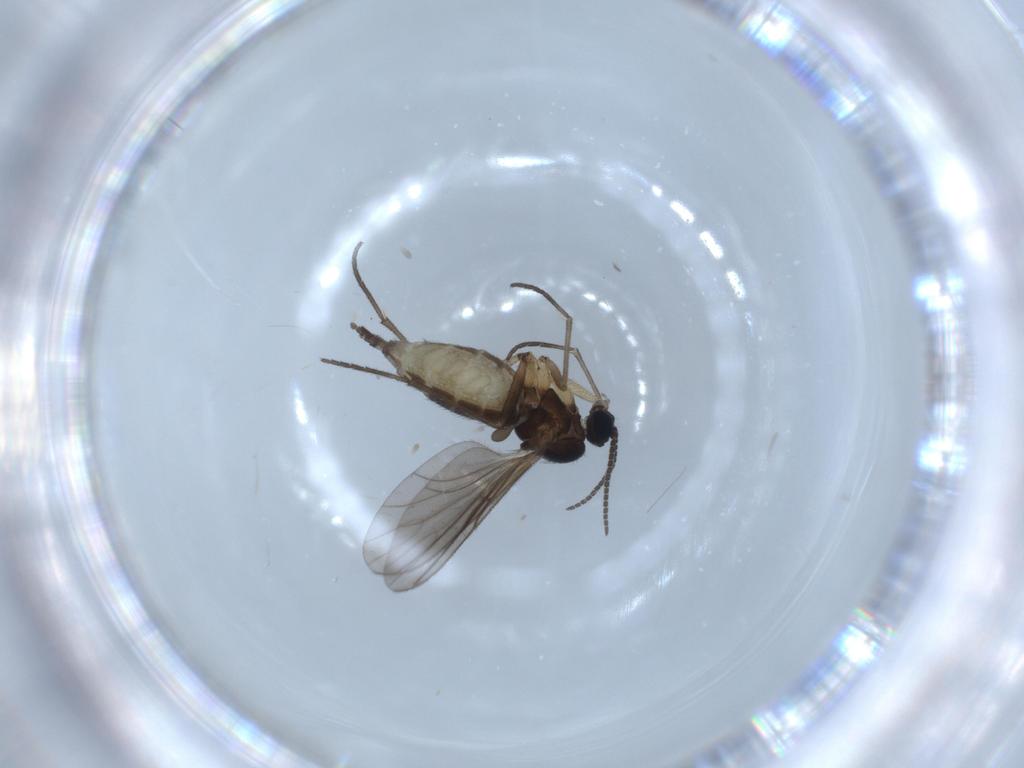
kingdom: Animalia
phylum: Arthropoda
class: Insecta
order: Diptera
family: Sciaridae
